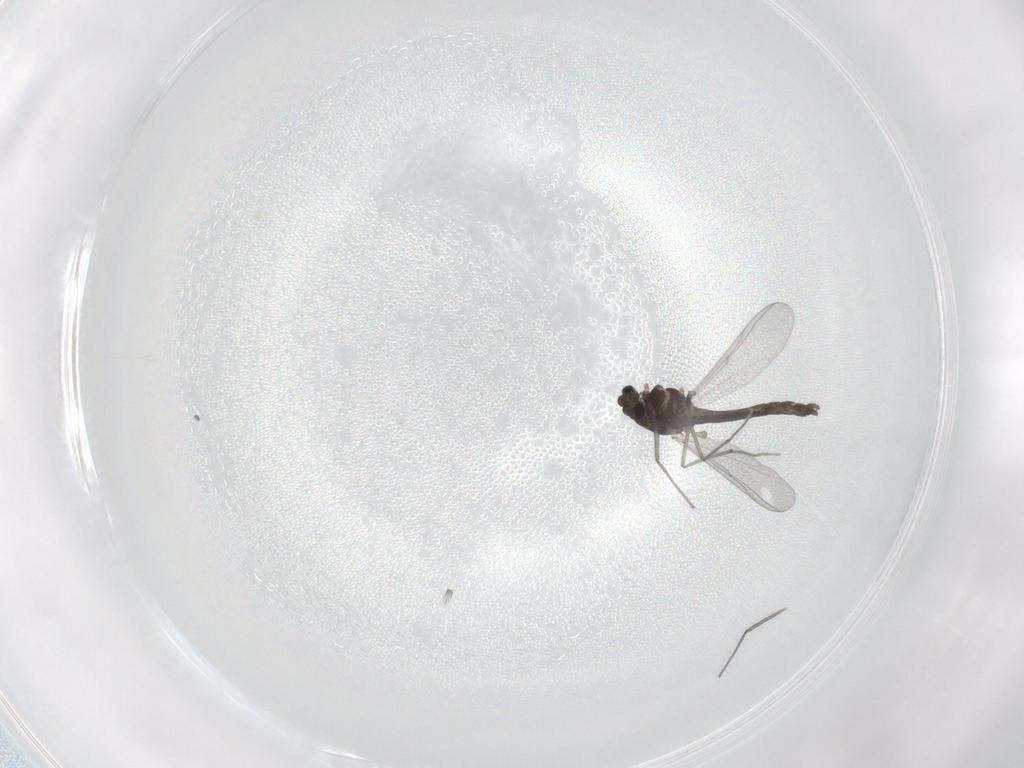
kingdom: Animalia
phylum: Arthropoda
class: Insecta
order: Diptera
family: Chironomidae
